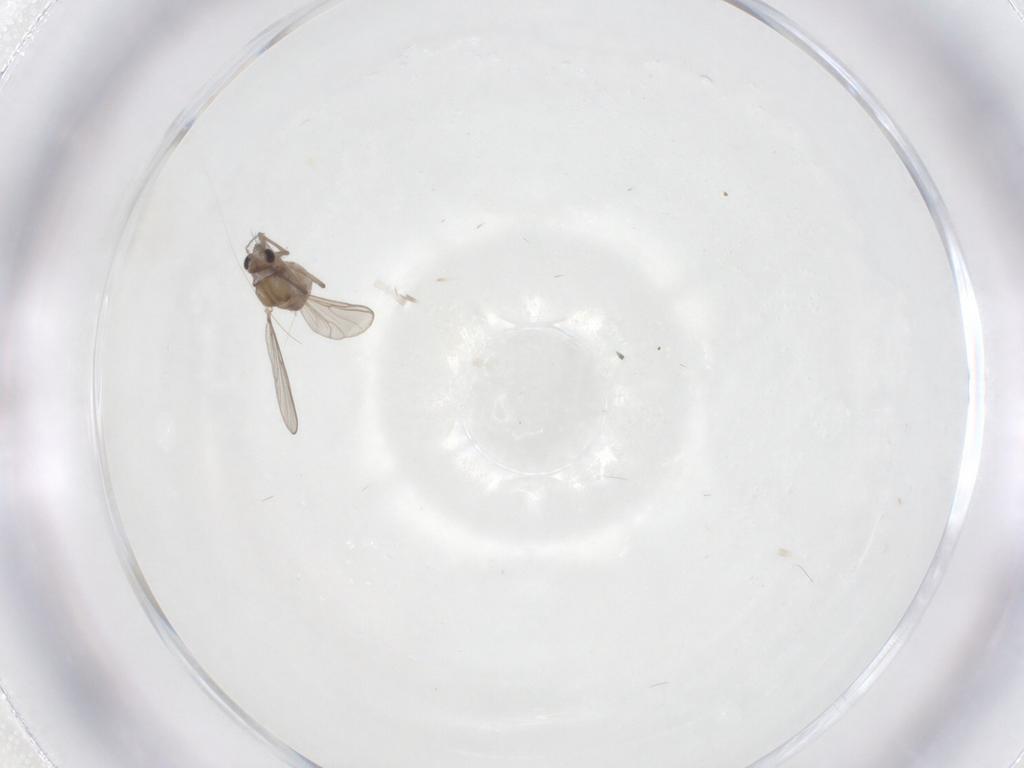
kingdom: Animalia
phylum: Arthropoda
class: Insecta
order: Diptera
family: Chironomidae
